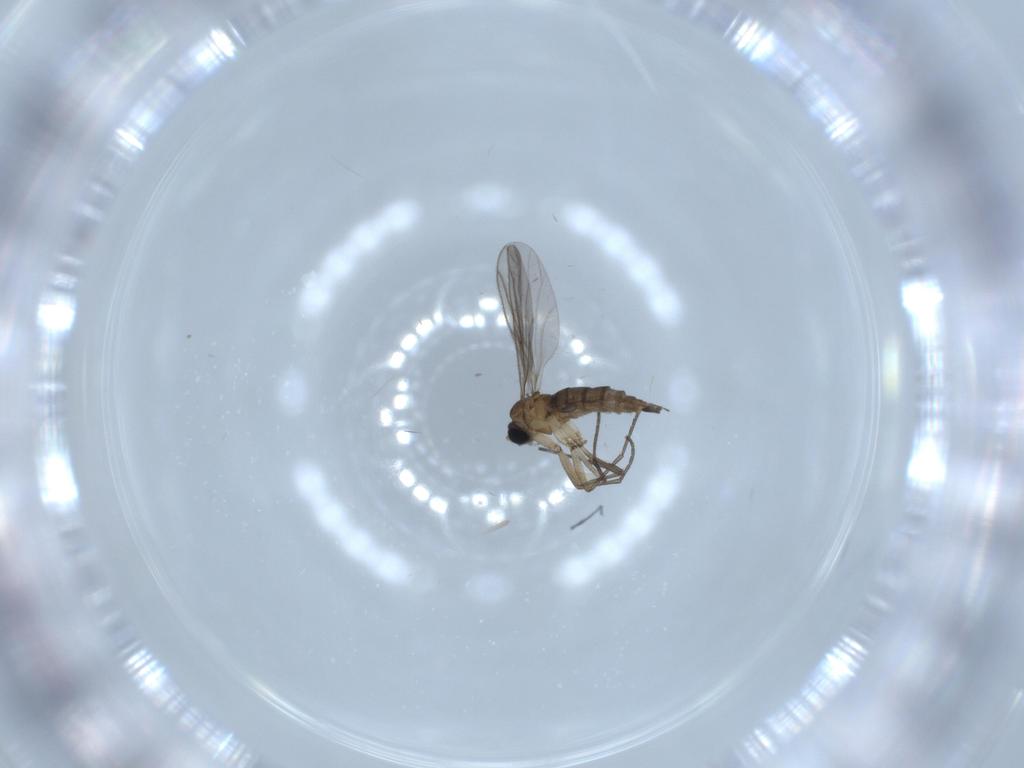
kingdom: Animalia
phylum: Arthropoda
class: Insecta
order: Diptera
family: Sciaridae
